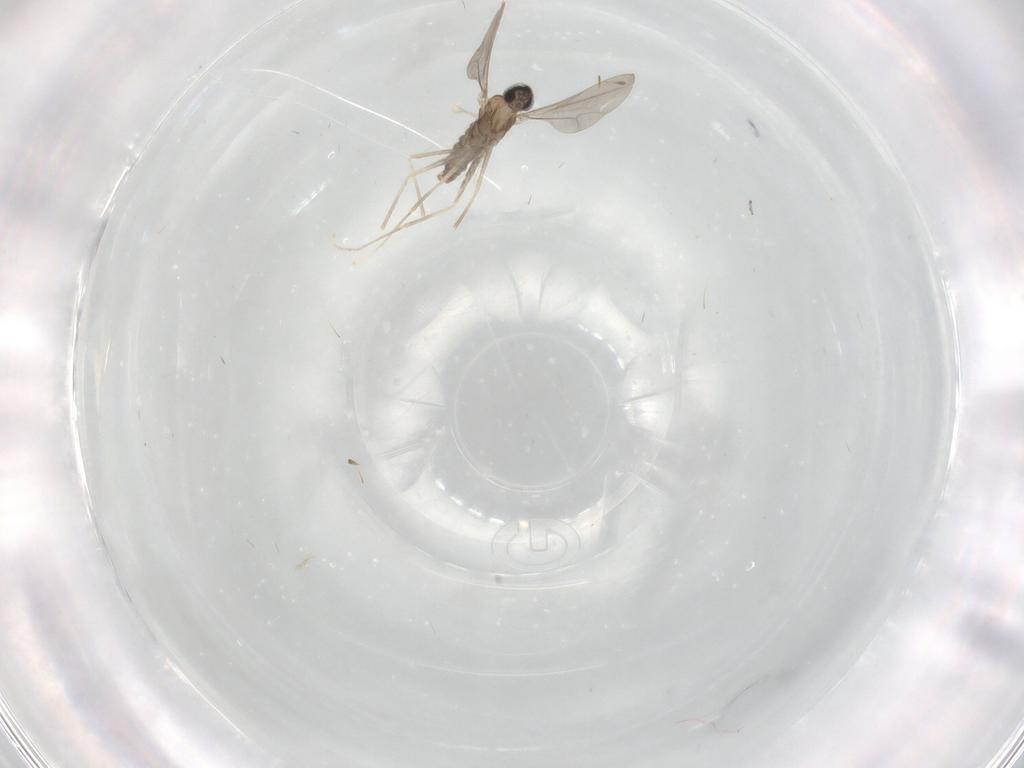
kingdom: Animalia
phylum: Arthropoda
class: Insecta
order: Diptera
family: Cecidomyiidae
